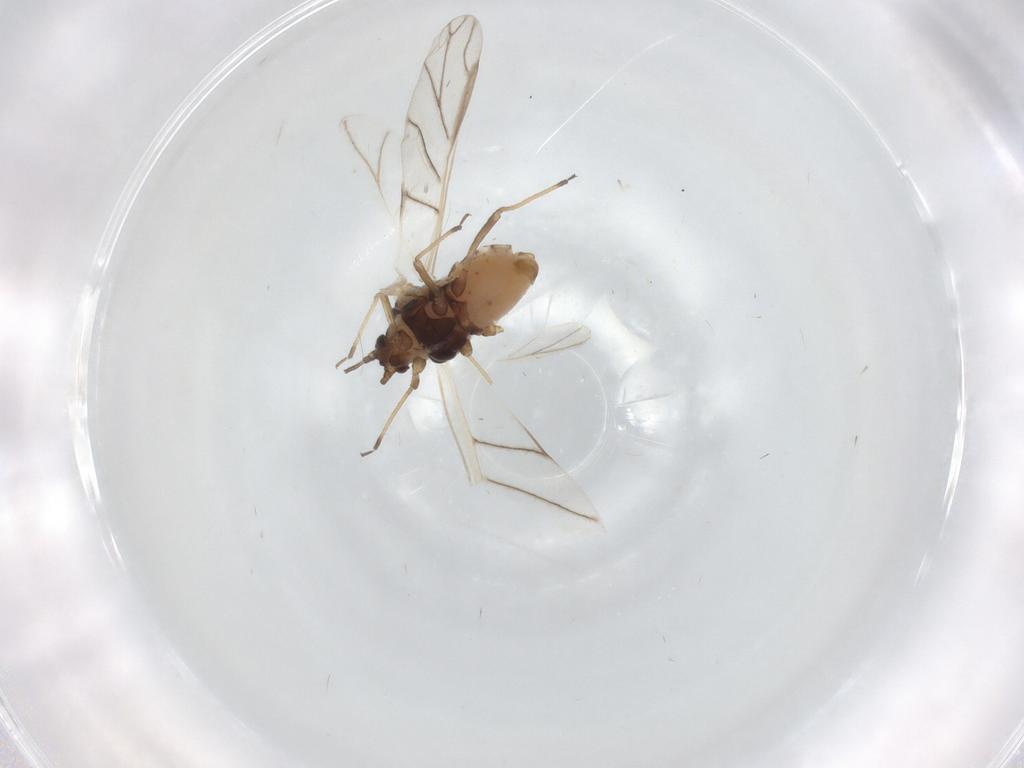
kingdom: Animalia
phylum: Arthropoda
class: Insecta
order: Hemiptera
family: Aphididae
